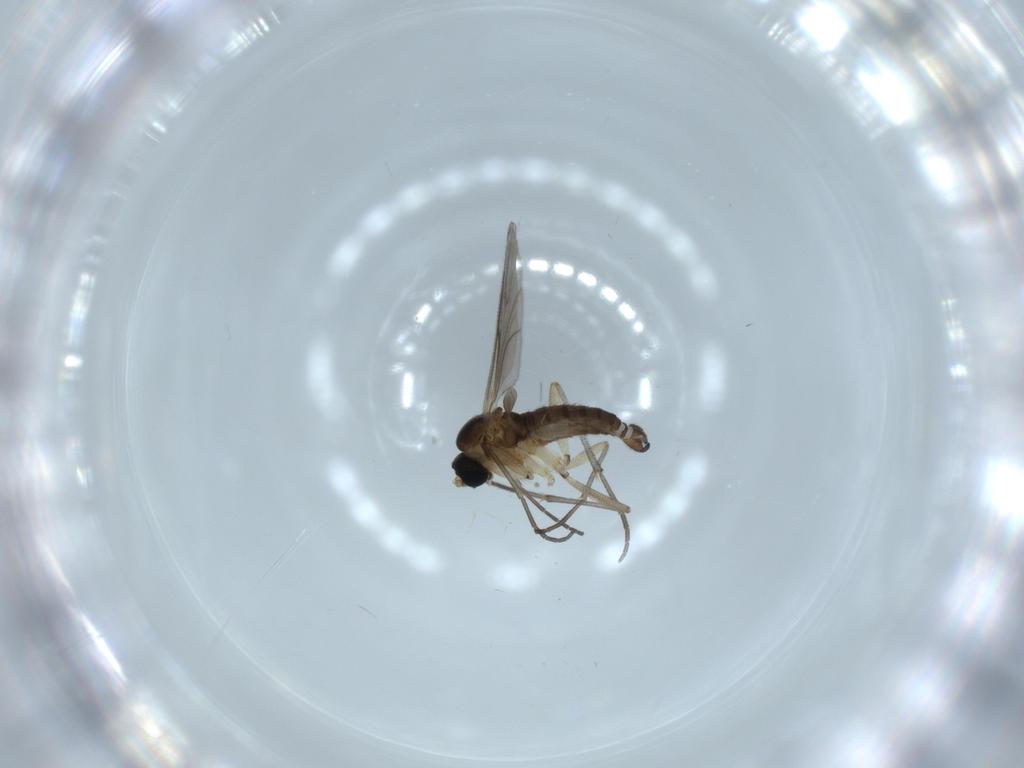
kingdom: Animalia
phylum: Arthropoda
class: Insecta
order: Diptera
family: Sciaridae
